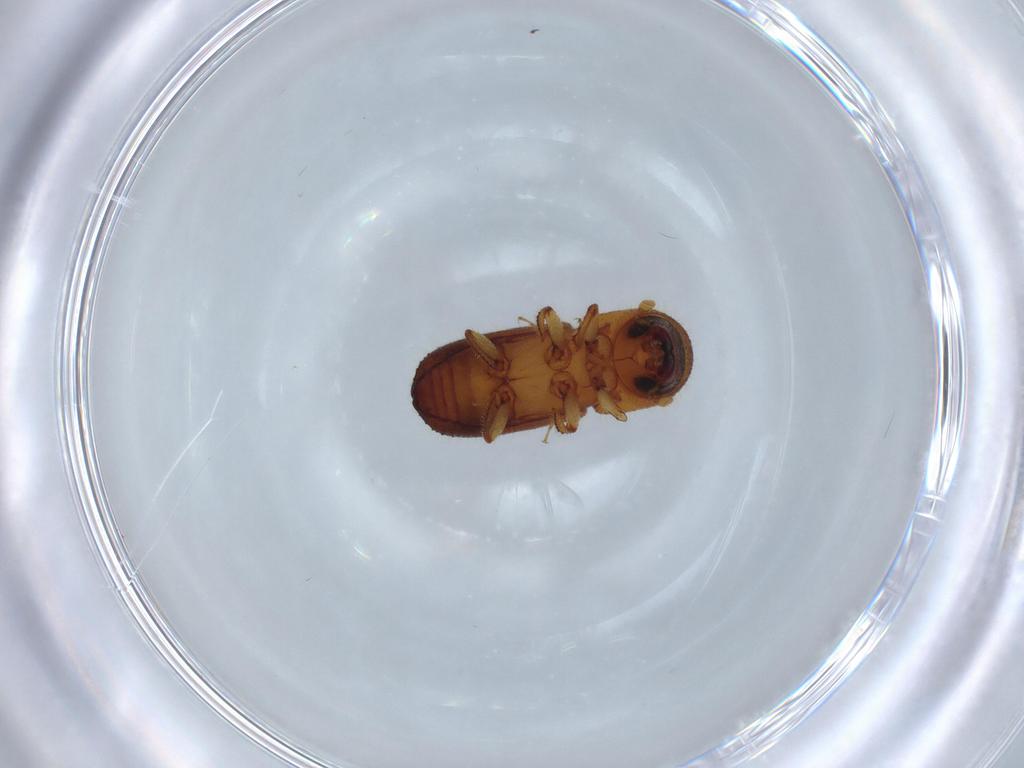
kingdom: Animalia
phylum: Arthropoda
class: Insecta
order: Coleoptera
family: Curculionidae
